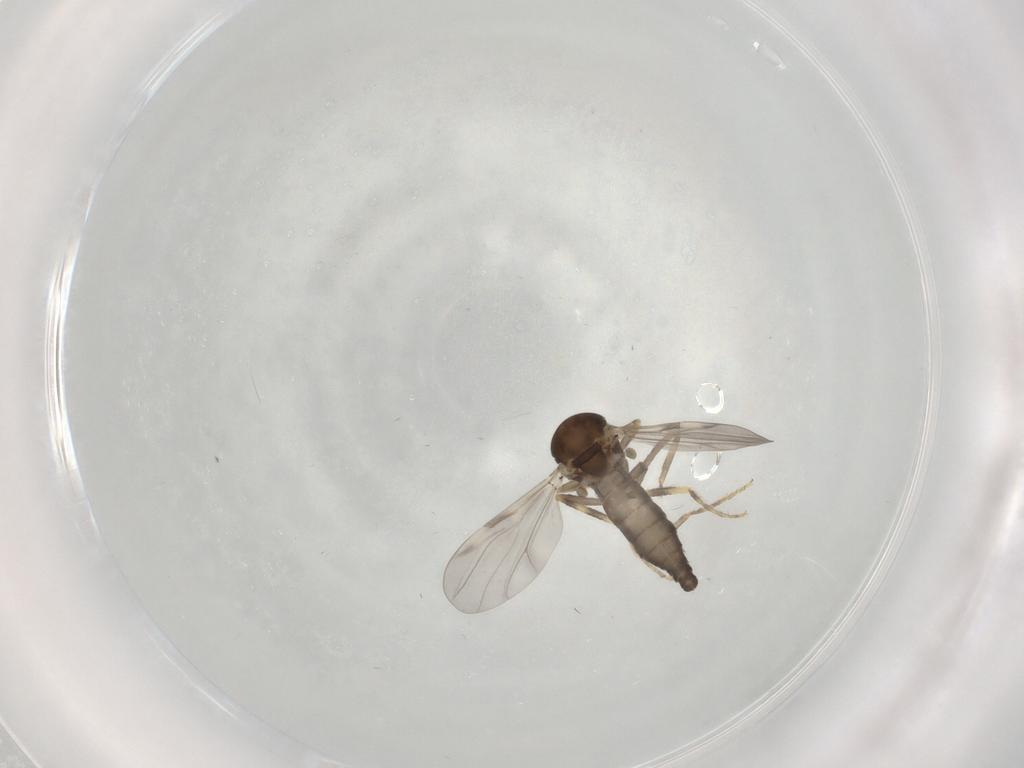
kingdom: Animalia
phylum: Arthropoda
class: Insecta
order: Diptera
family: Ceratopogonidae
